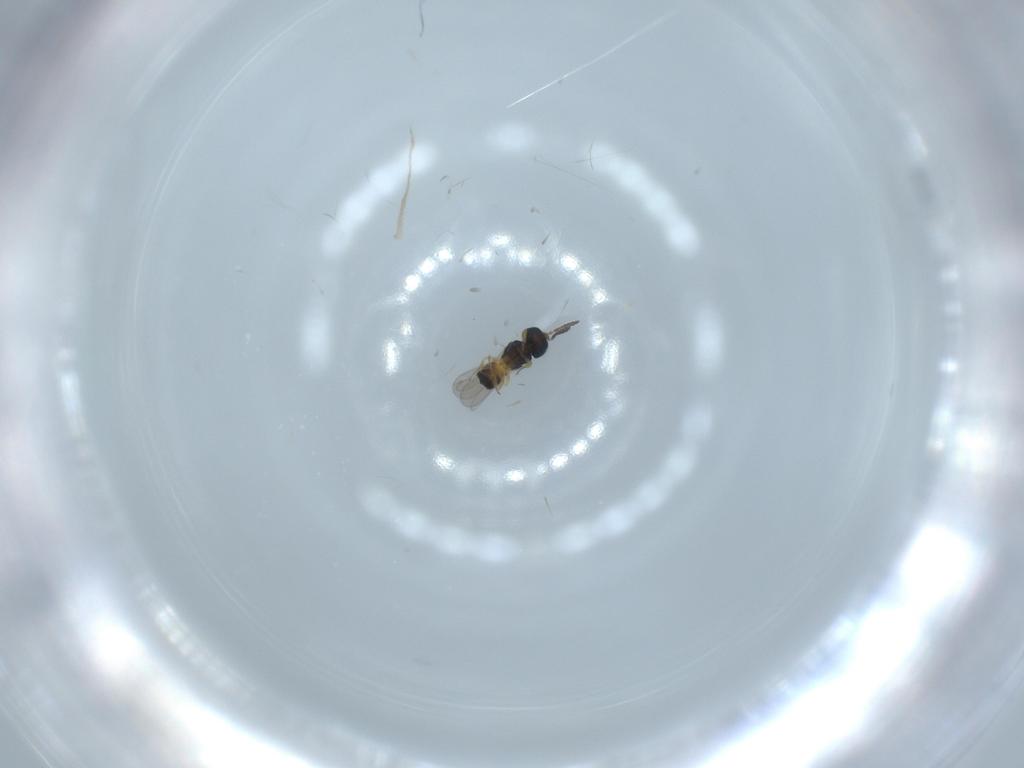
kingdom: Animalia
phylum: Arthropoda
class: Insecta
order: Hymenoptera
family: Scelionidae
